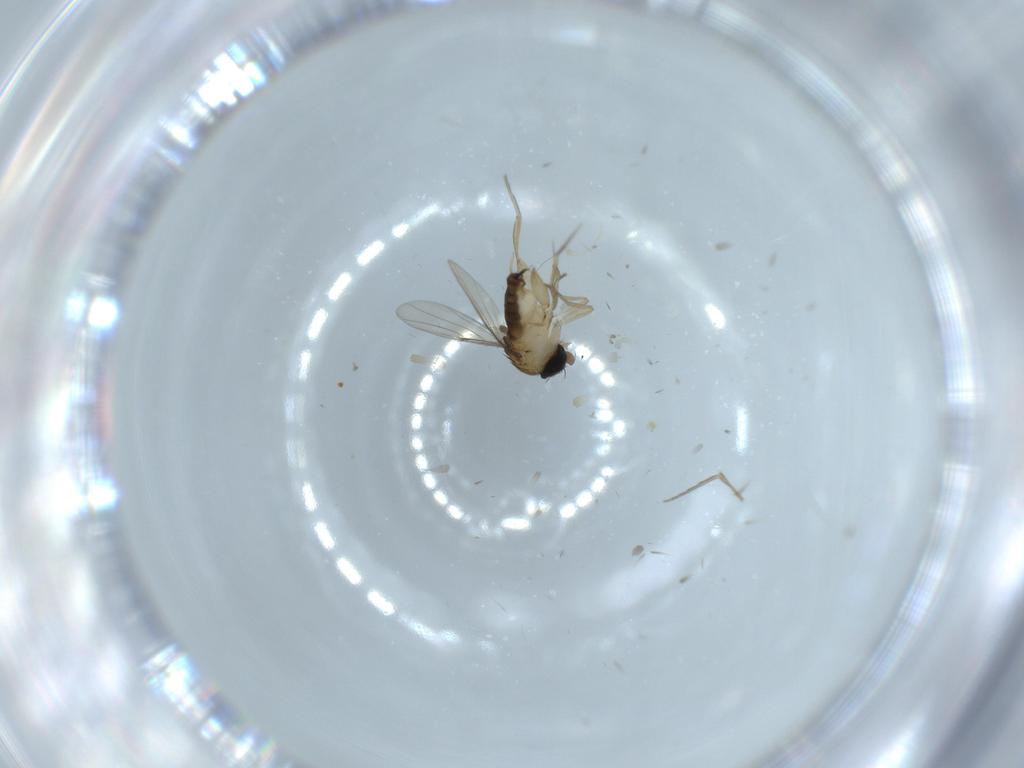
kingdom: Animalia
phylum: Arthropoda
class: Insecta
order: Diptera
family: Phoridae
